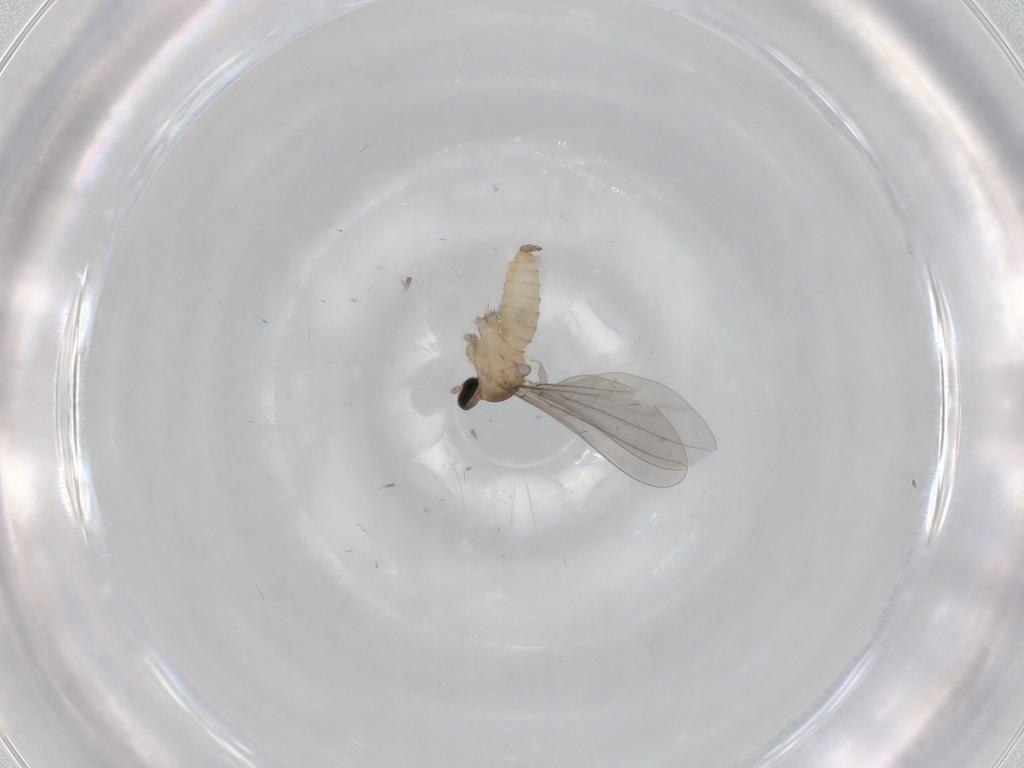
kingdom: Animalia
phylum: Arthropoda
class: Insecta
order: Diptera
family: Cecidomyiidae
